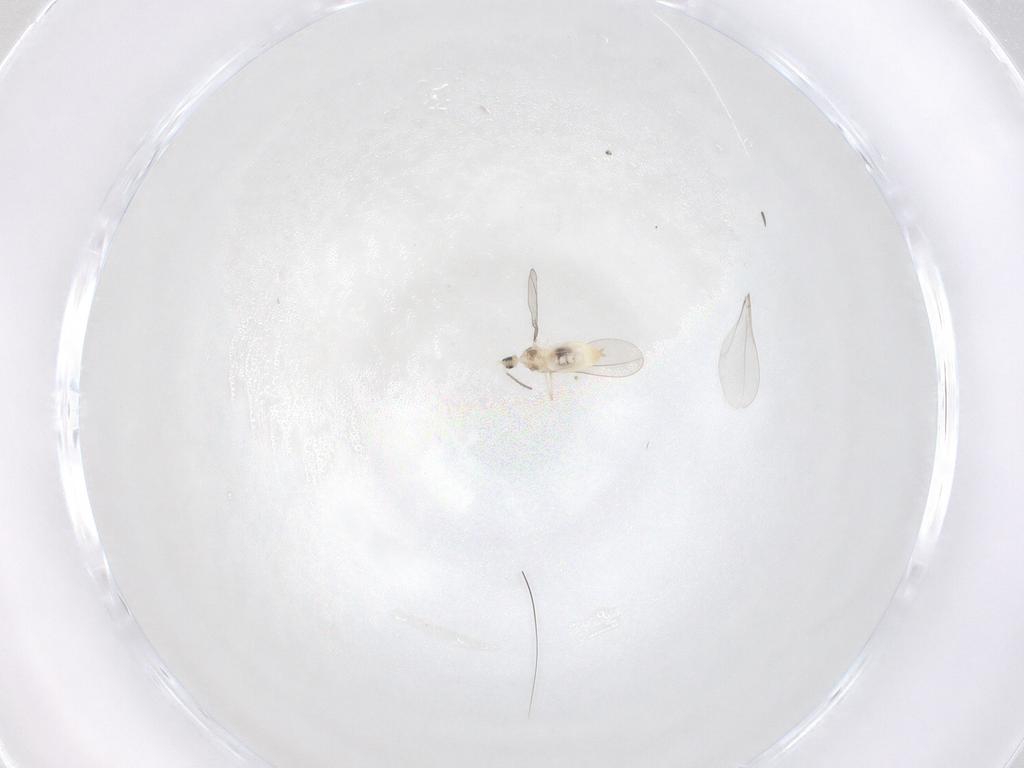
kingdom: Animalia
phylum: Arthropoda
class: Insecta
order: Diptera
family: Cecidomyiidae
